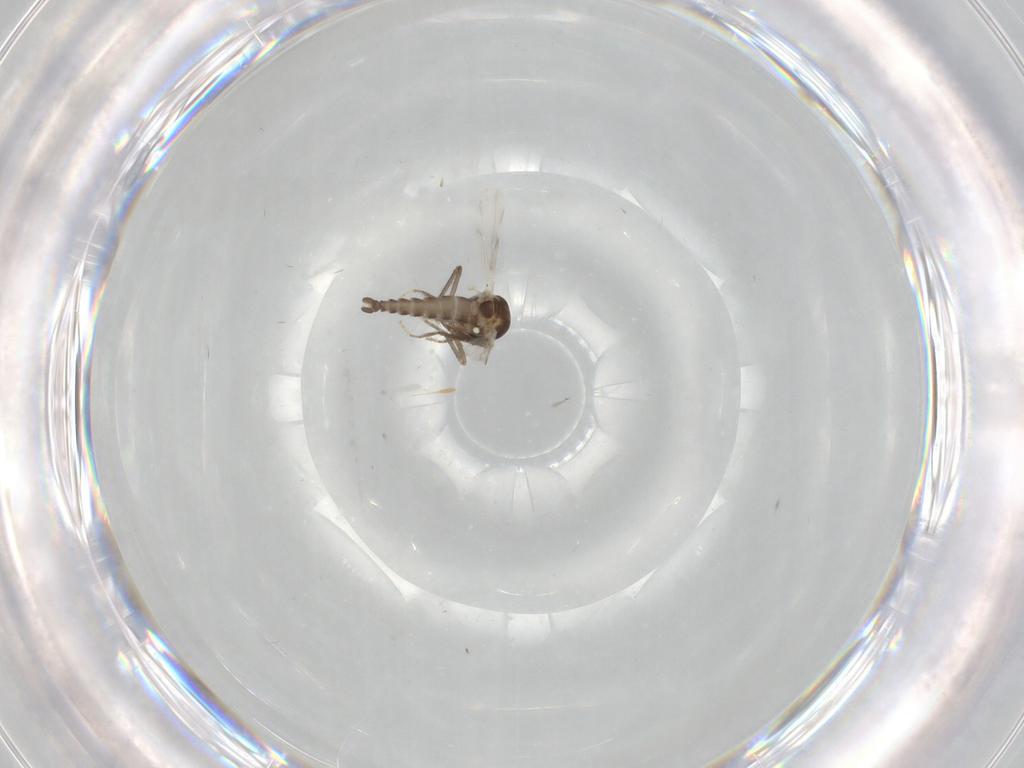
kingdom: Animalia
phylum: Arthropoda
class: Insecta
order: Diptera
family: Ceratopogonidae
